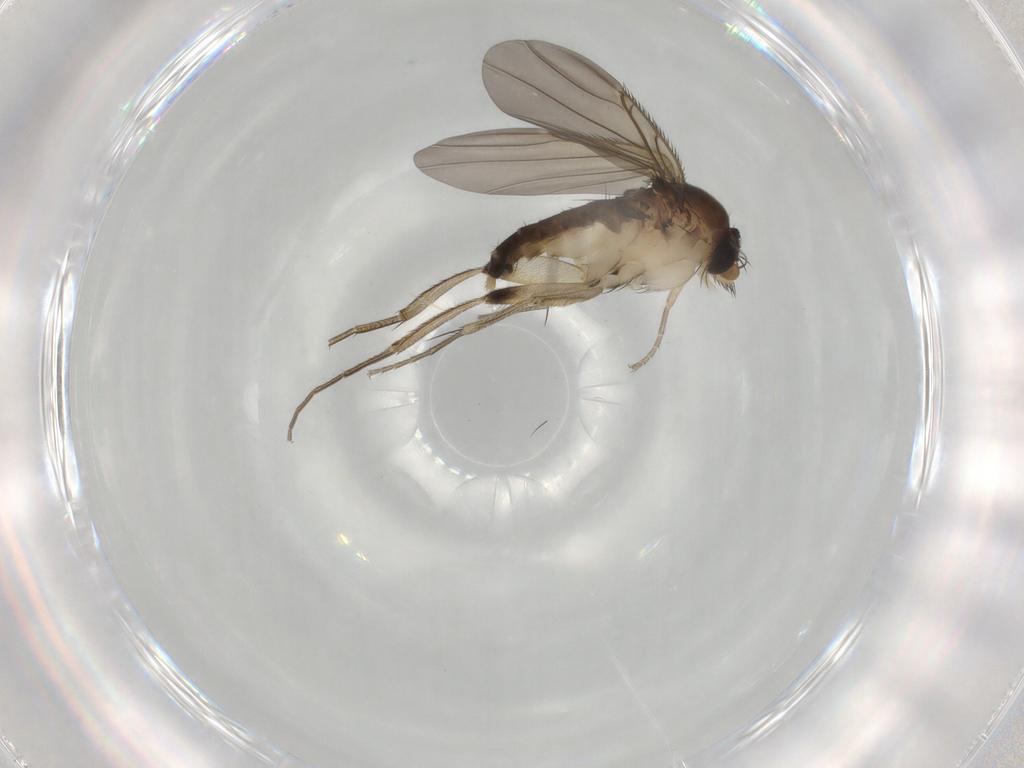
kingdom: Animalia
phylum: Arthropoda
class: Insecta
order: Diptera
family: Phoridae
